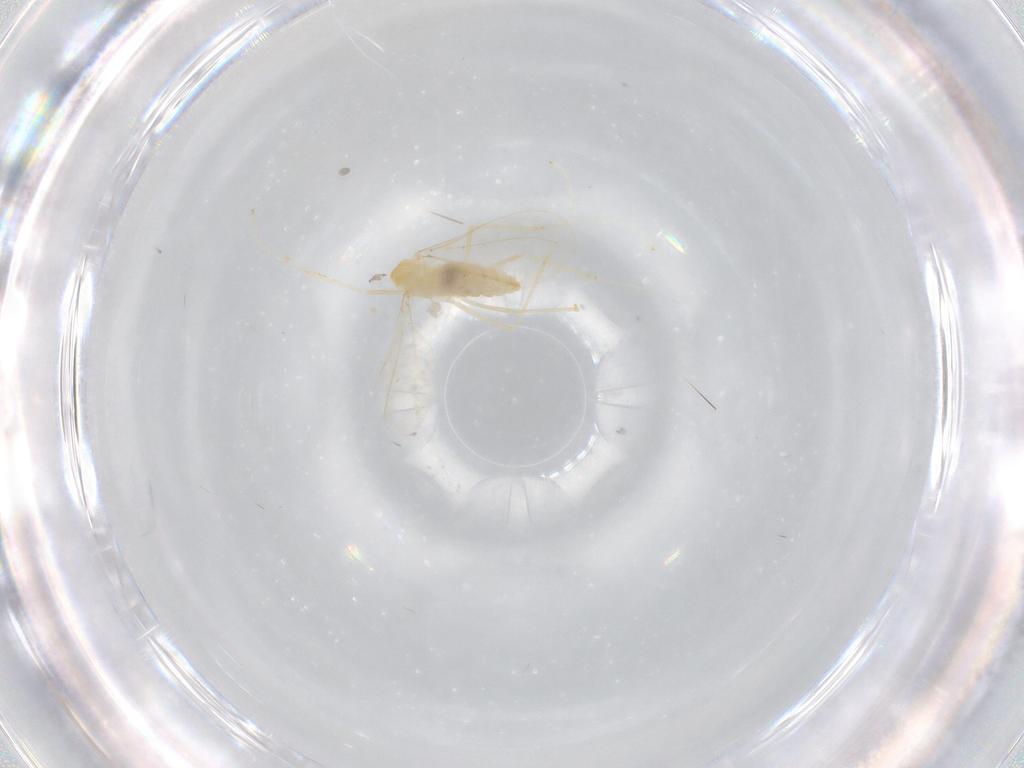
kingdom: Animalia
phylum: Arthropoda
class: Insecta
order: Diptera
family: Cecidomyiidae
